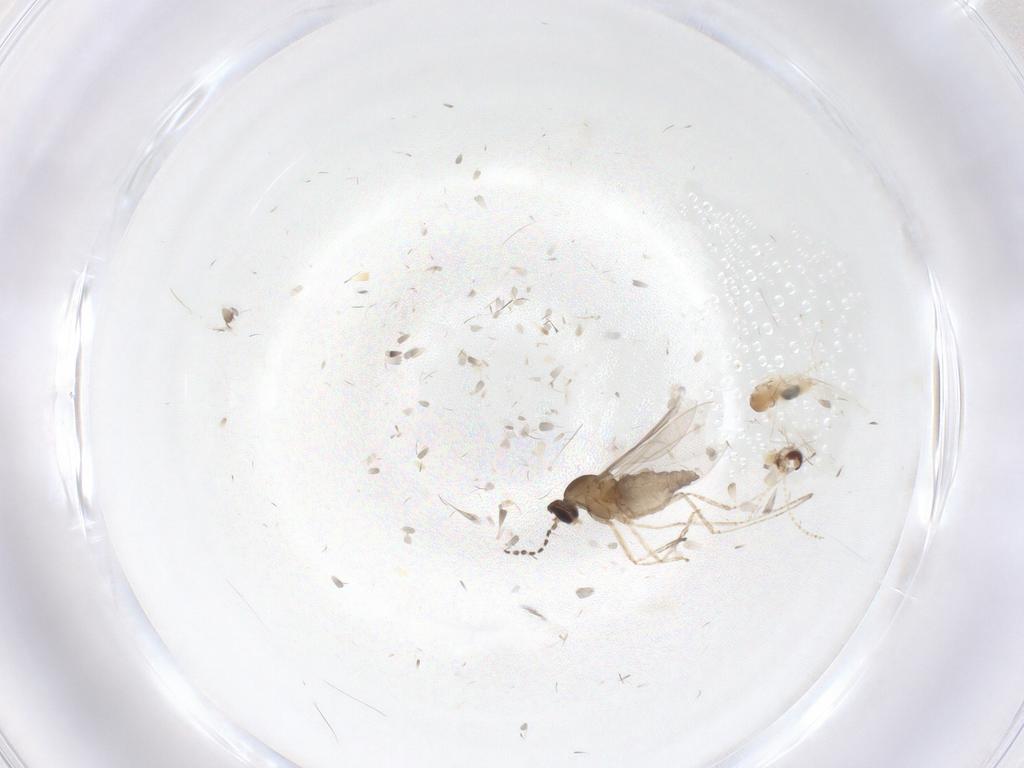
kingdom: Animalia
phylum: Arthropoda
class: Insecta
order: Diptera
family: Cecidomyiidae
